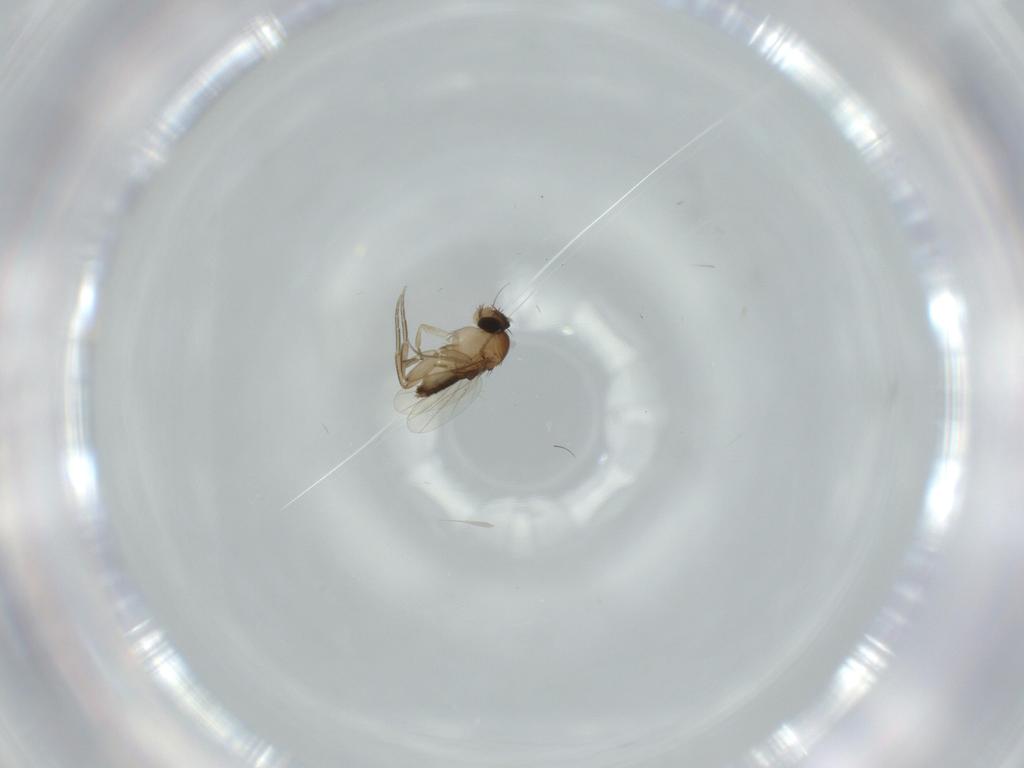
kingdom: Animalia
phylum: Arthropoda
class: Insecta
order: Diptera
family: Phoridae
